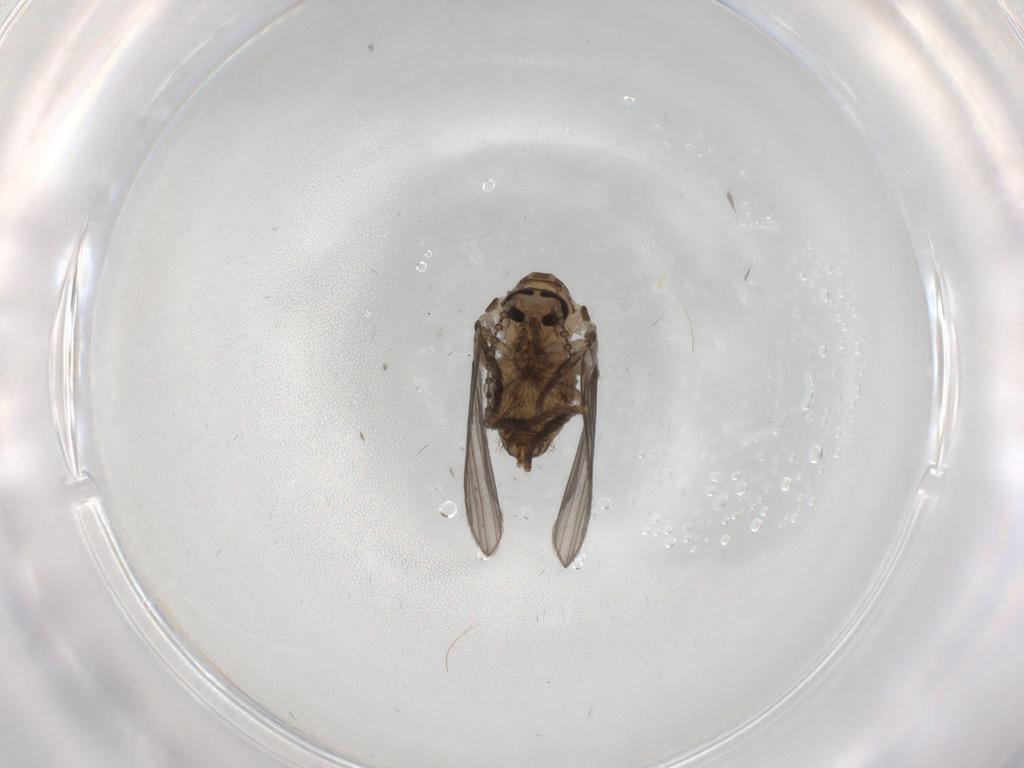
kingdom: Animalia
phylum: Arthropoda
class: Insecta
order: Diptera
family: Psychodidae
